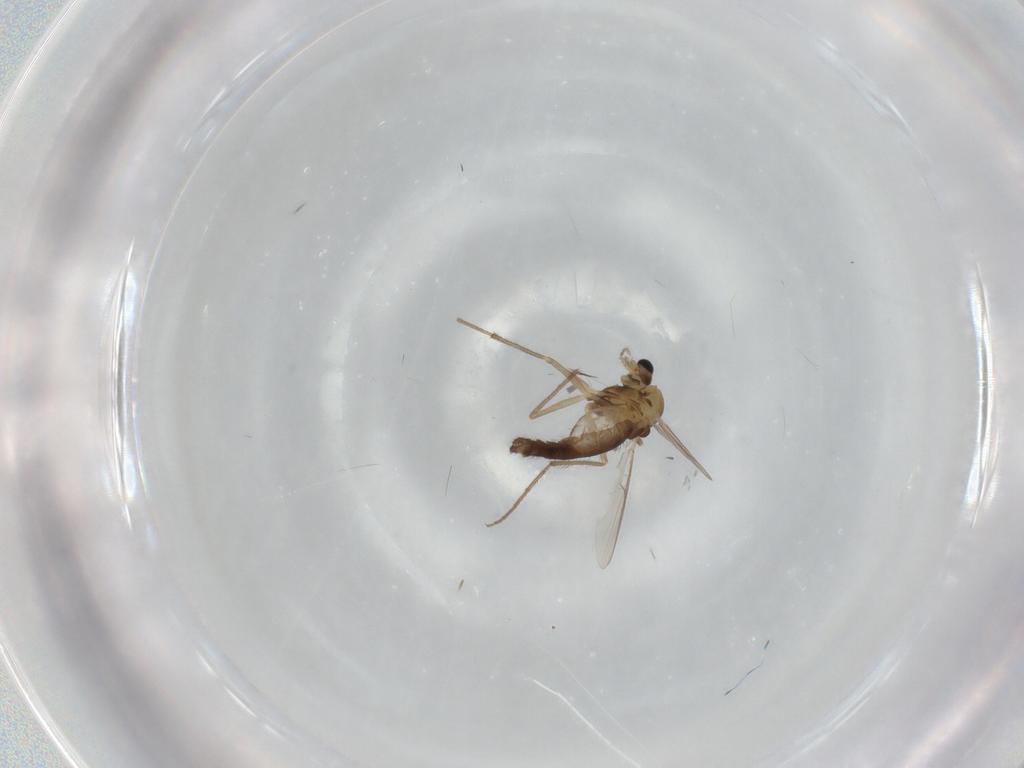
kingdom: Animalia
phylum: Arthropoda
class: Insecta
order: Diptera
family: Chironomidae
